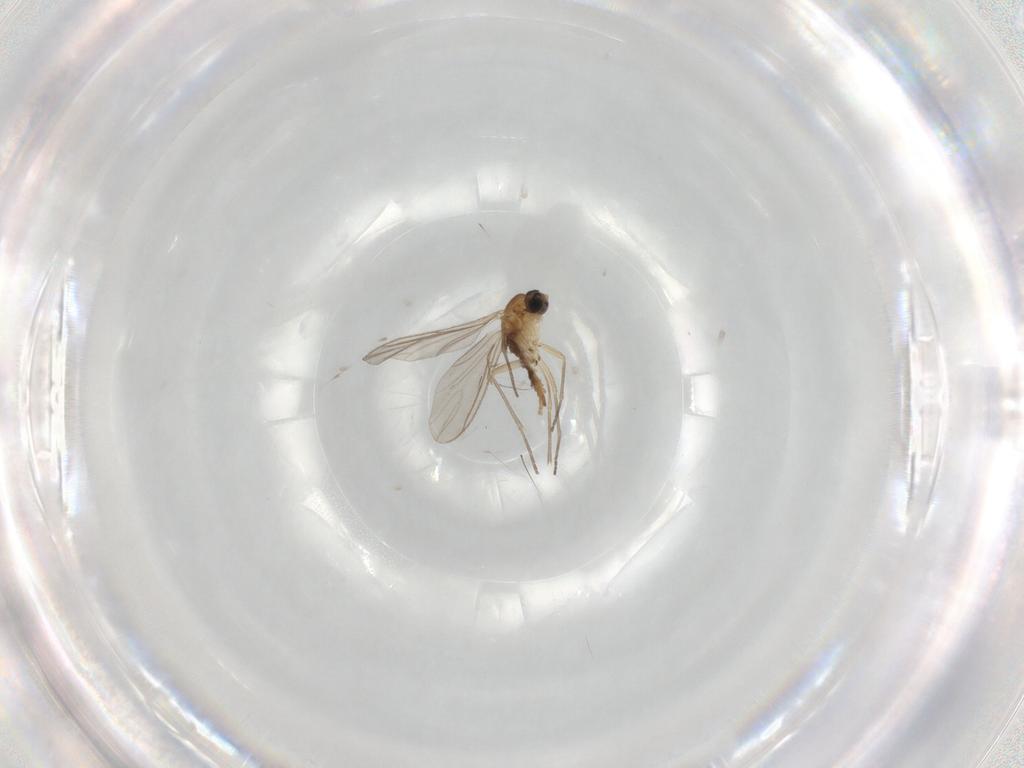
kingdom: Animalia
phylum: Arthropoda
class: Insecta
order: Diptera
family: Sciaridae
